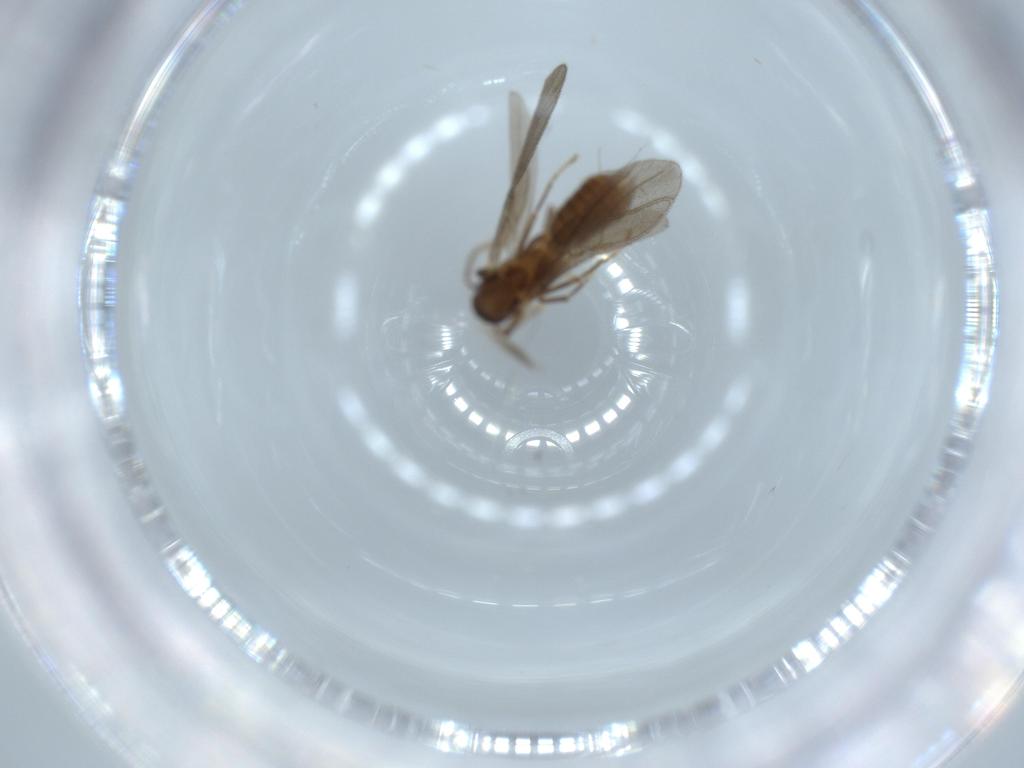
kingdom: Animalia
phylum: Arthropoda
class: Insecta
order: Hymenoptera
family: Formicidae
